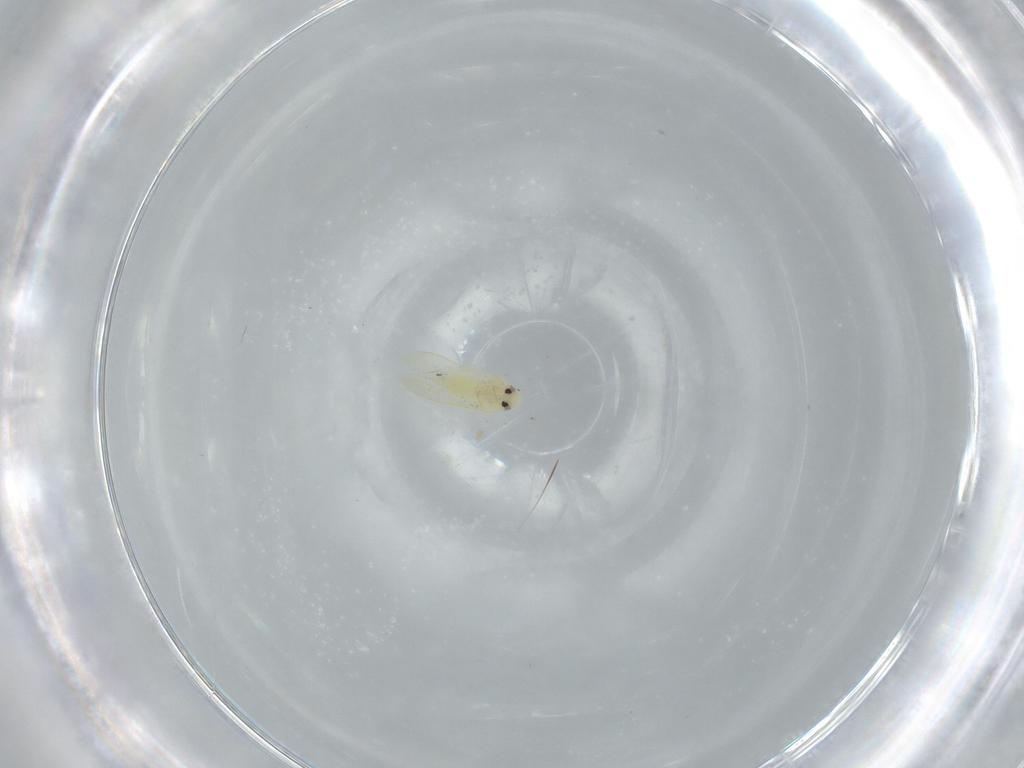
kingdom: Animalia
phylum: Arthropoda
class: Insecta
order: Hemiptera
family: Aleyrodidae
